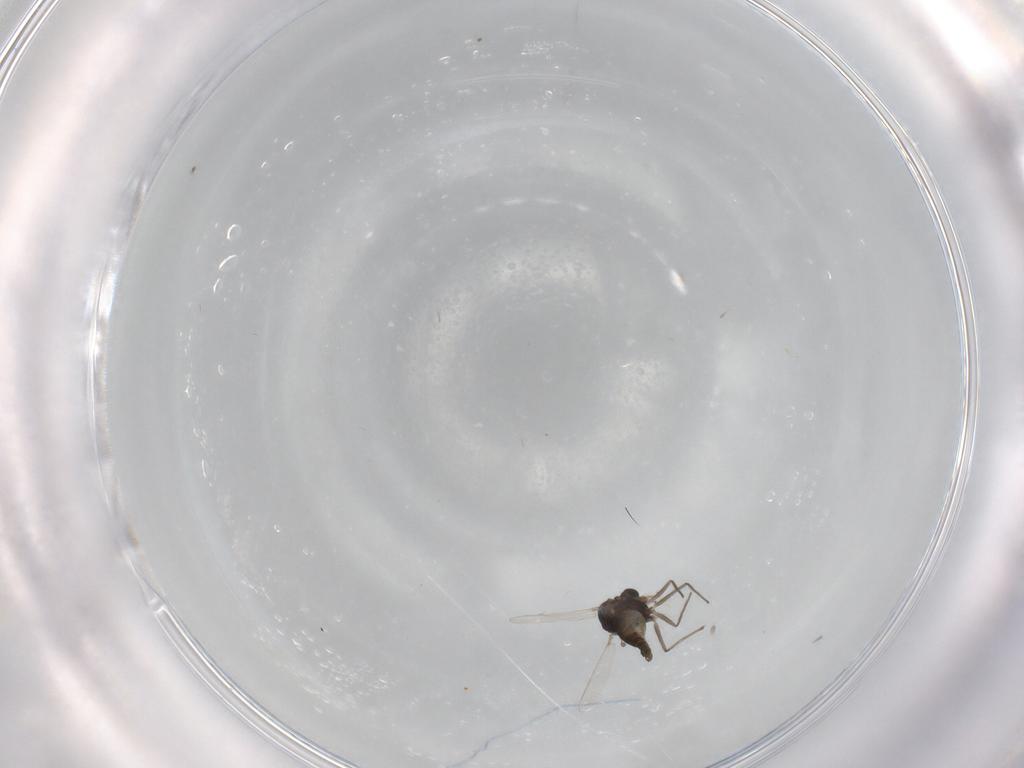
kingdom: Animalia
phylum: Arthropoda
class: Insecta
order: Diptera
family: Chironomidae
